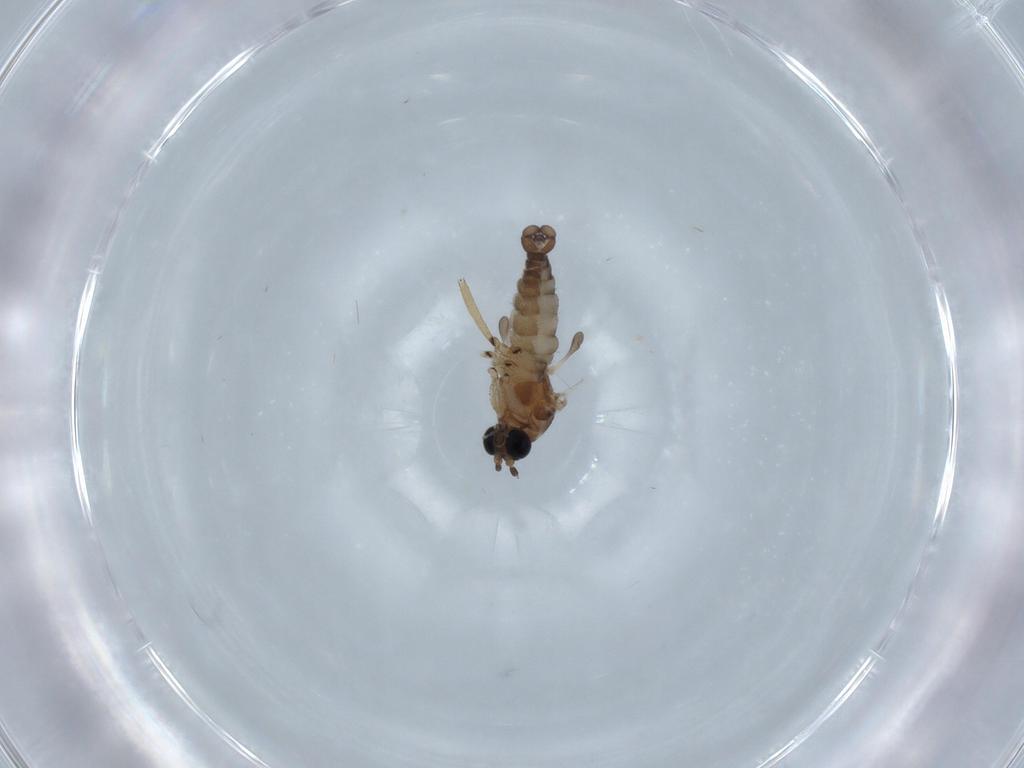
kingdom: Animalia
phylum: Arthropoda
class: Insecta
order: Diptera
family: Sciaridae
